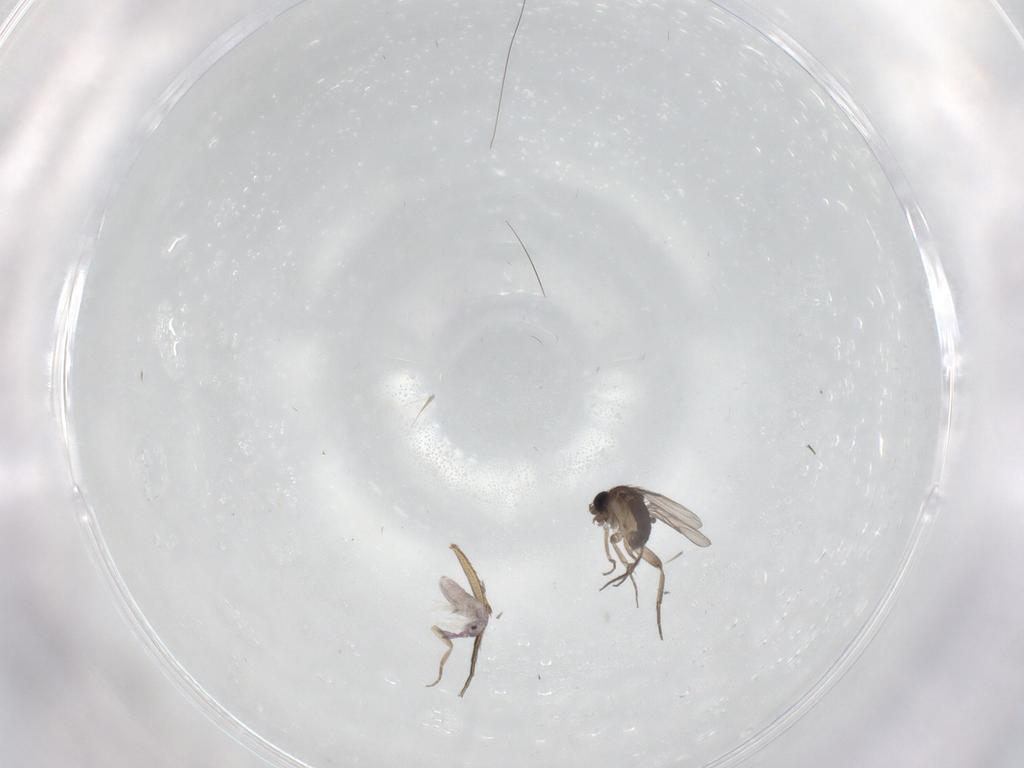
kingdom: Animalia
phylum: Arthropoda
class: Insecta
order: Diptera
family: Phoridae
